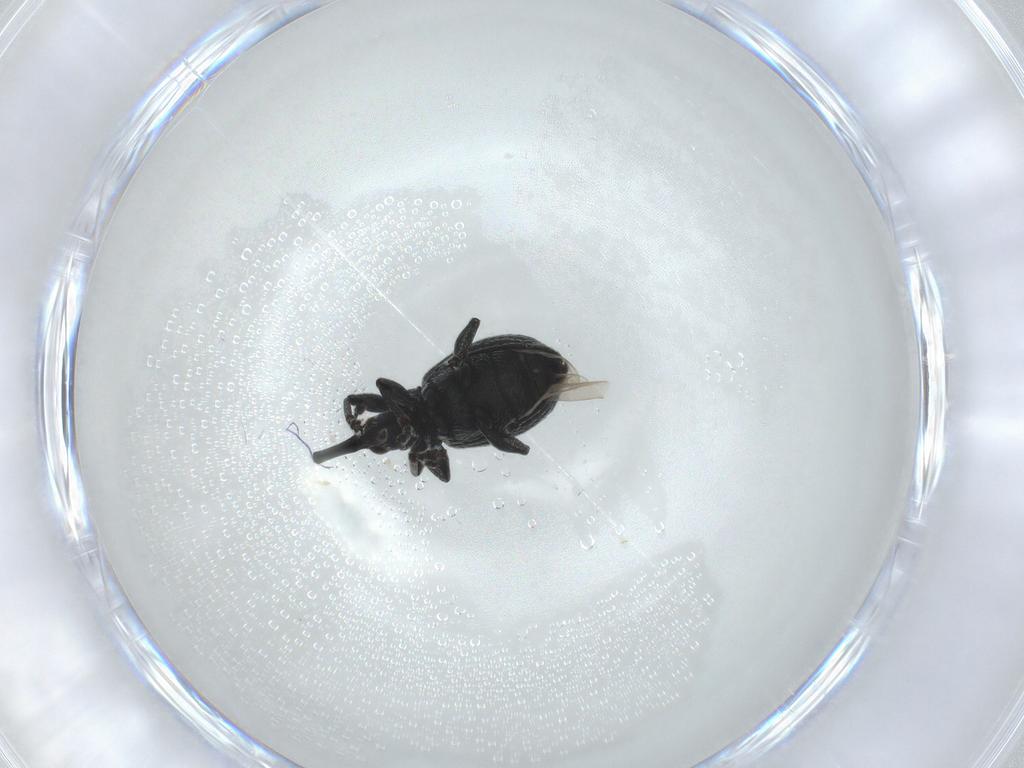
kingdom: Animalia
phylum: Arthropoda
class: Insecta
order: Coleoptera
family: Brentidae
